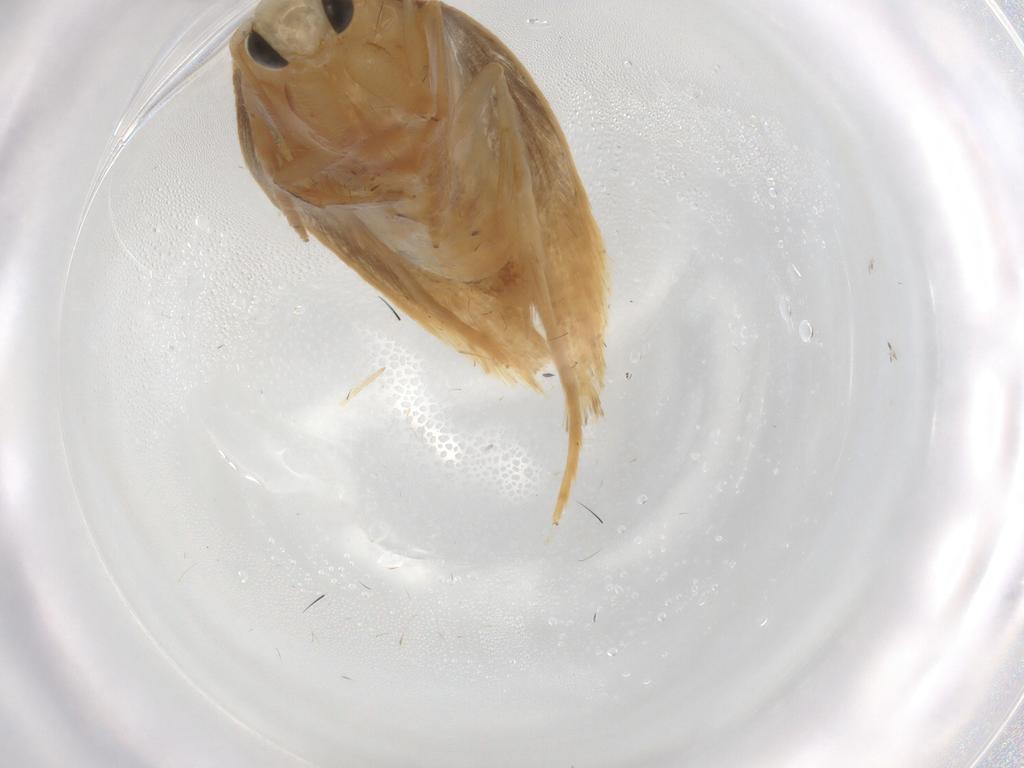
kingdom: Animalia
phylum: Arthropoda
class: Insecta
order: Lepidoptera
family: Tineidae
